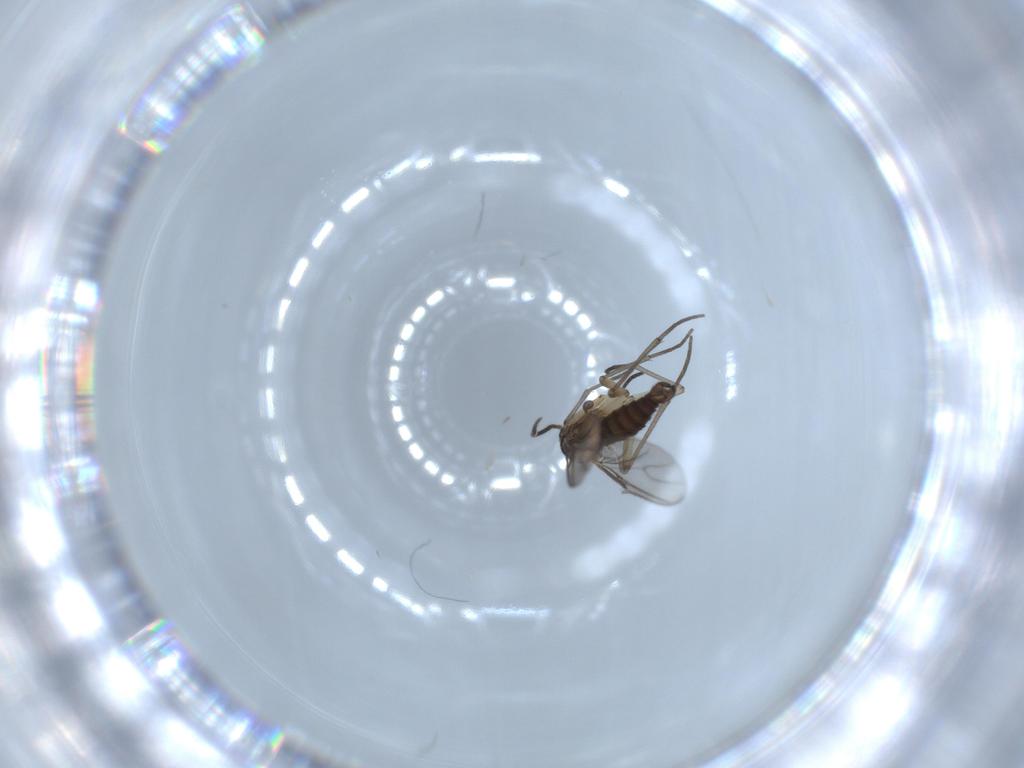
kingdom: Animalia
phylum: Arthropoda
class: Insecta
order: Diptera
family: Sciaridae
